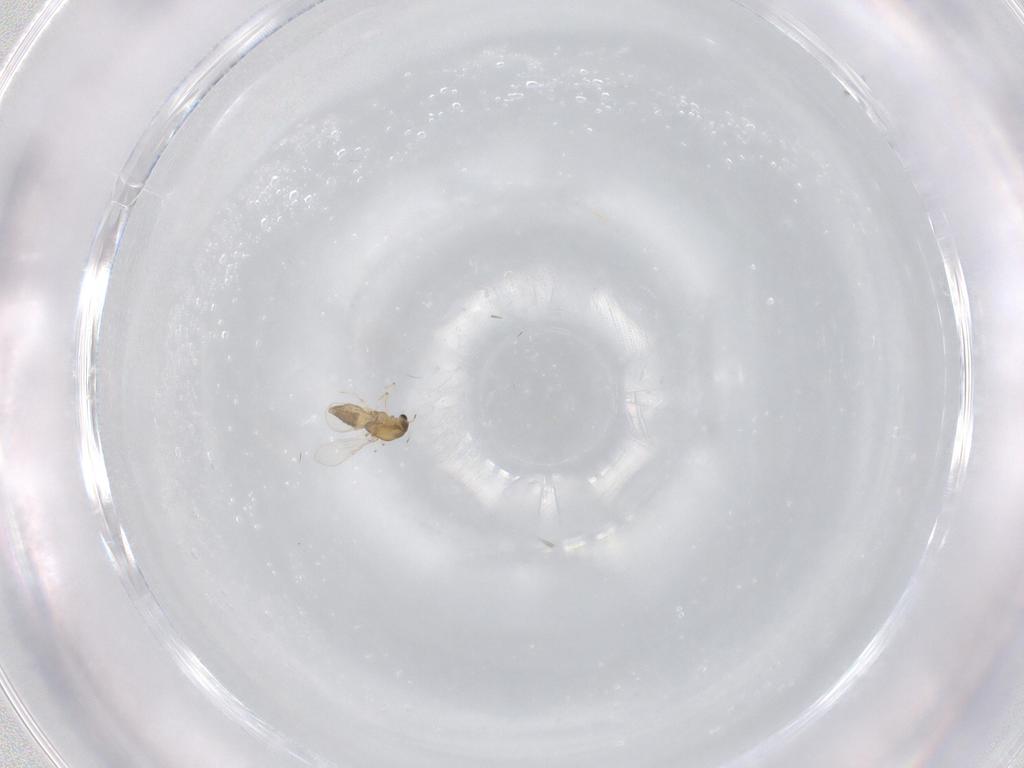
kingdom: Animalia
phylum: Arthropoda
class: Insecta
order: Diptera
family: Chironomidae
